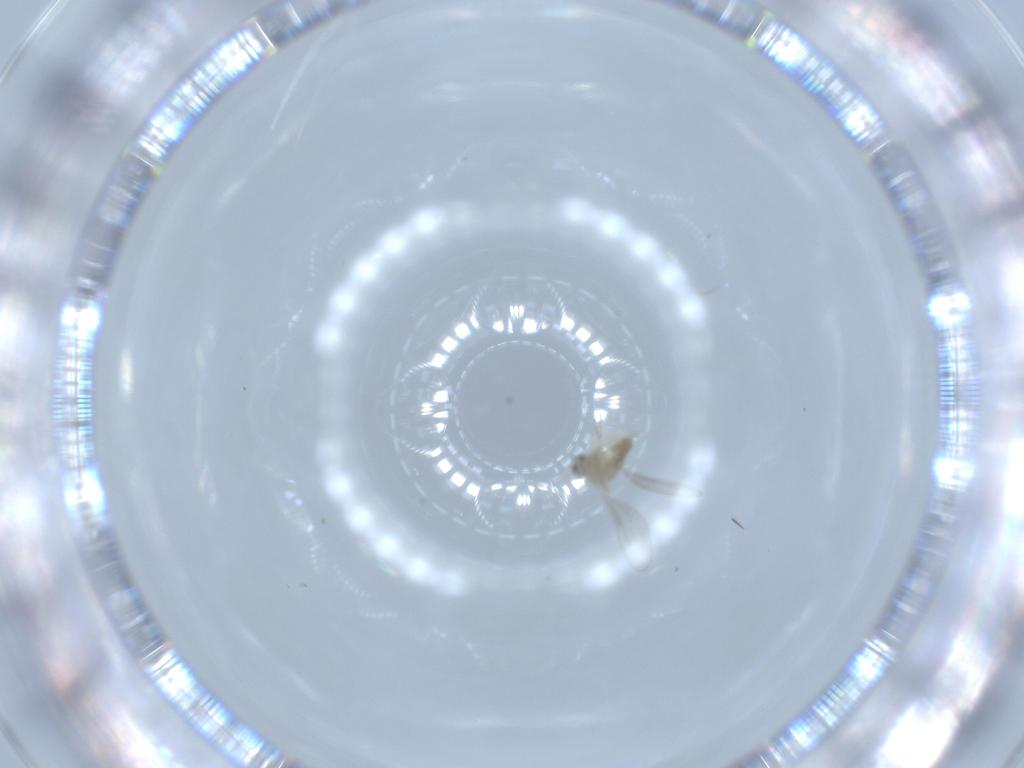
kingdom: Animalia
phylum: Arthropoda
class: Insecta
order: Diptera
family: Cecidomyiidae
